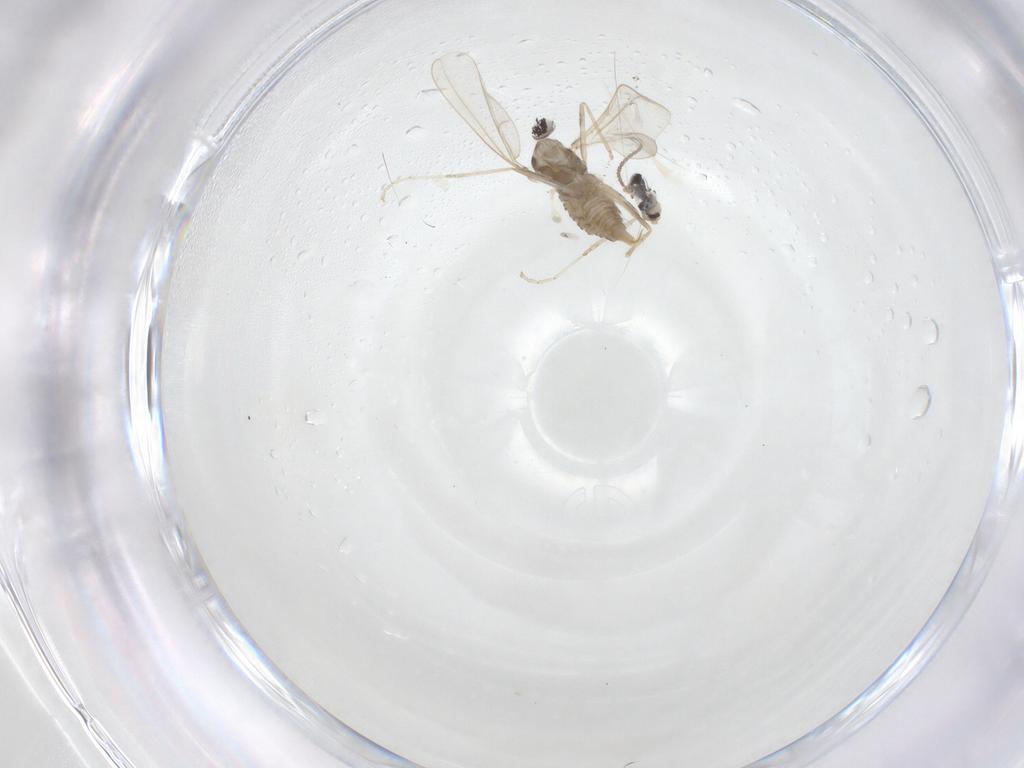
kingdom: Animalia
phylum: Arthropoda
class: Insecta
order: Diptera
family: Cecidomyiidae
